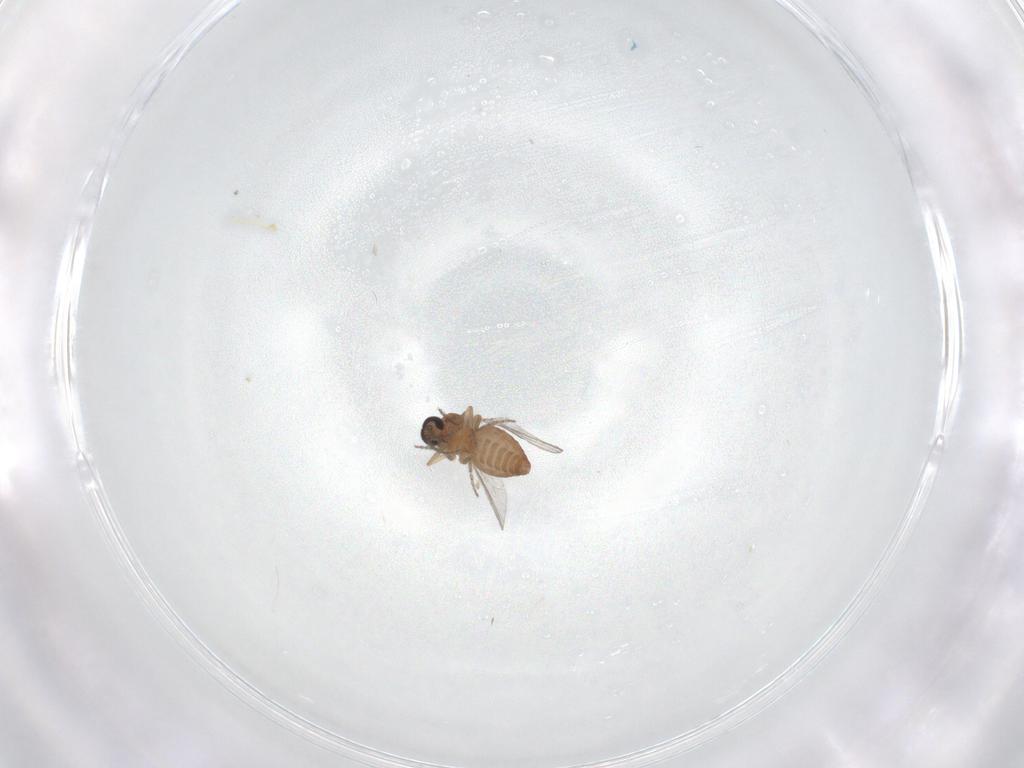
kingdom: Animalia
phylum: Arthropoda
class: Insecta
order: Diptera
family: Ceratopogonidae
